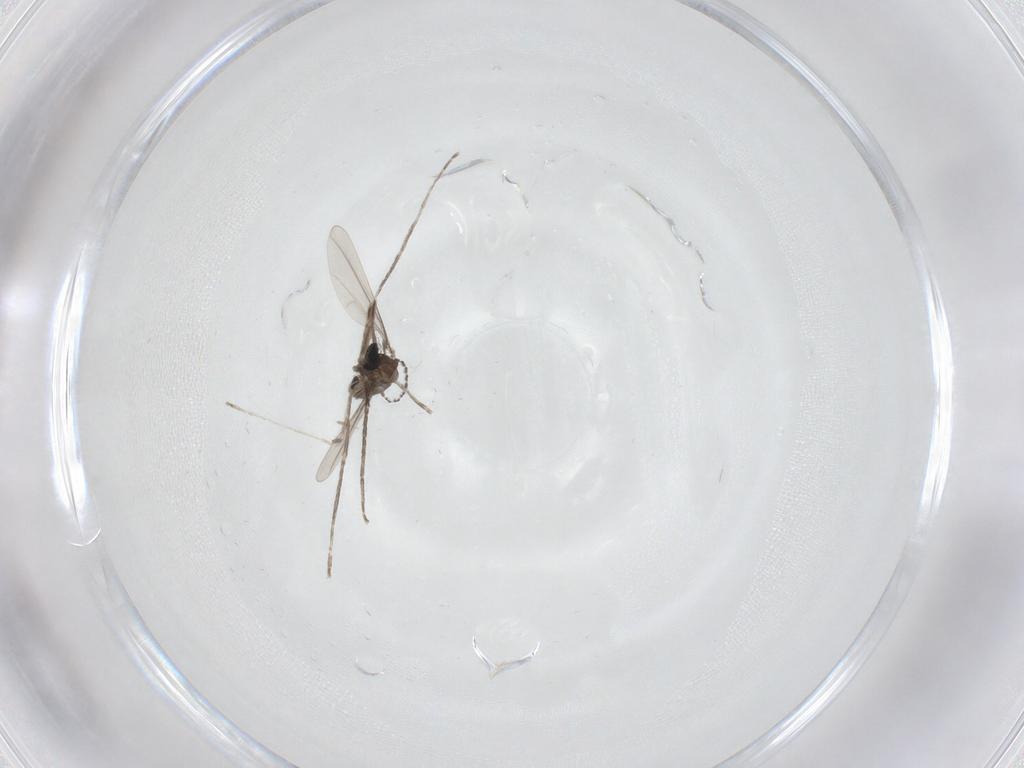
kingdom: Animalia
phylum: Arthropoda
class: Insecta
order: Diptera
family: Cecidomyiidae
